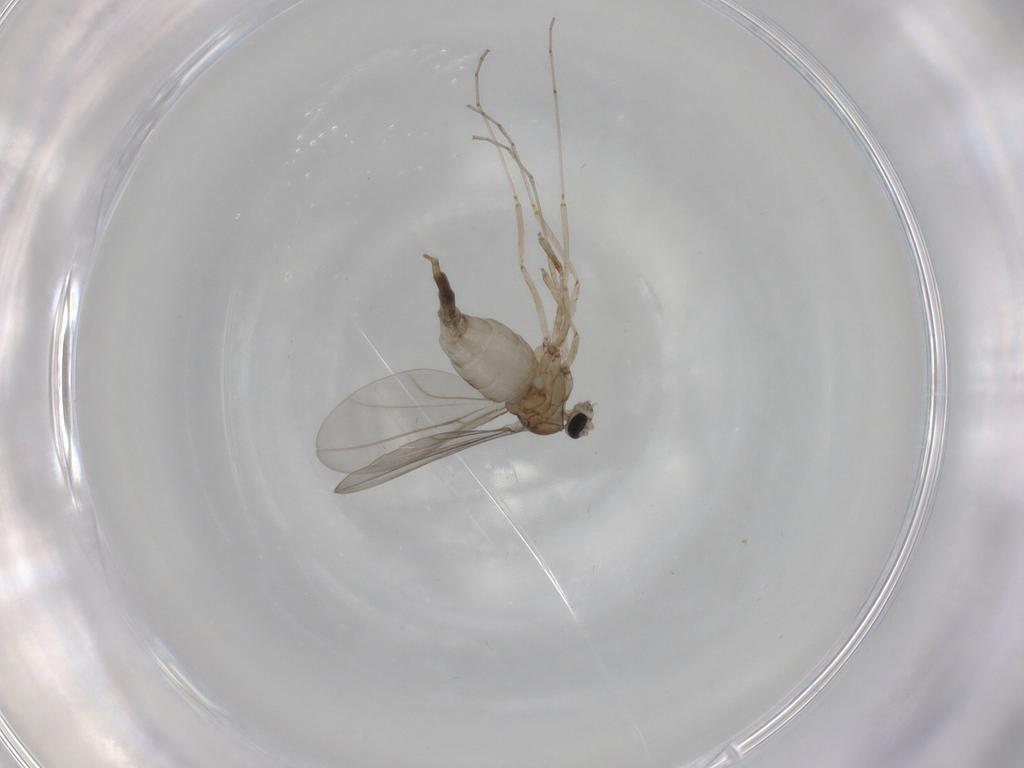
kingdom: Animalia
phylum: Arthropoda
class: Insecta
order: Diptera
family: Cecidomyiidae
